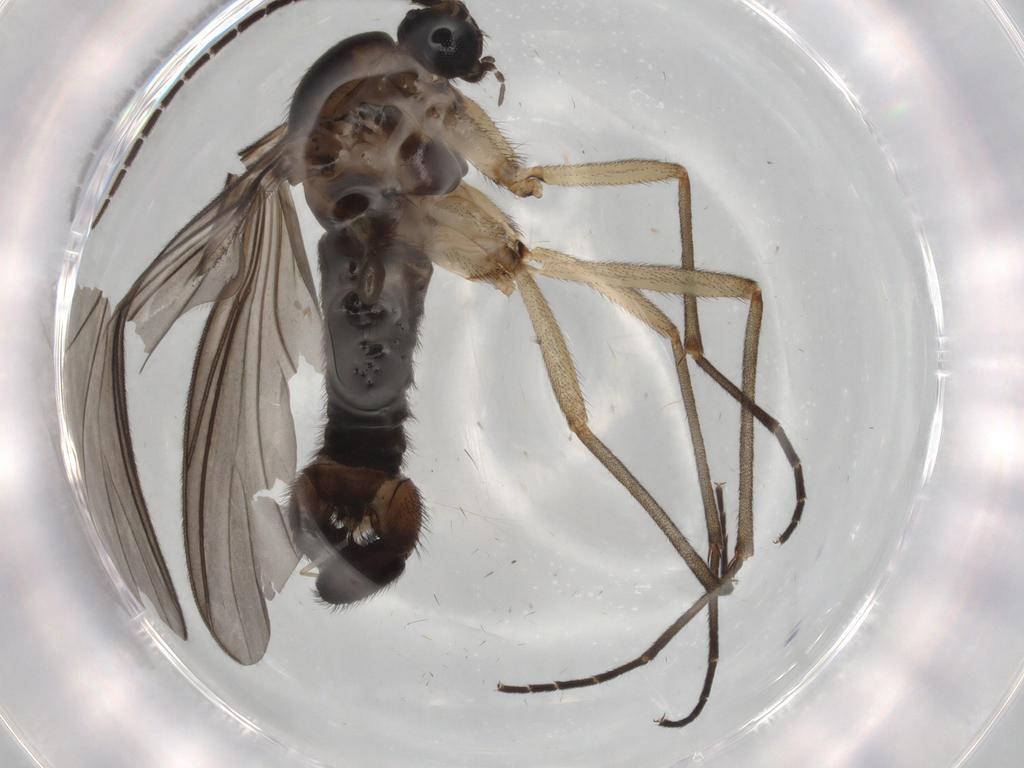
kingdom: Animalia
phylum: Arthropoda
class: Insecta
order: Diptera
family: Sciaridae
